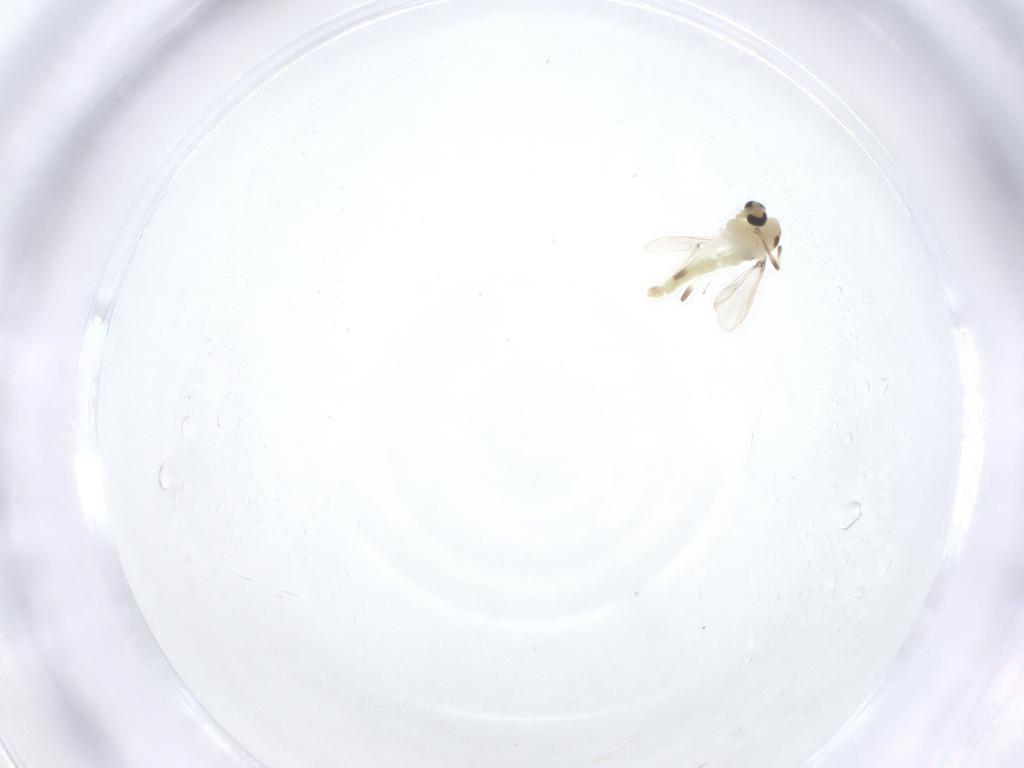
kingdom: Animalia
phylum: Arthropoda
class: Insecta
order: Diptera
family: Chironomidae
